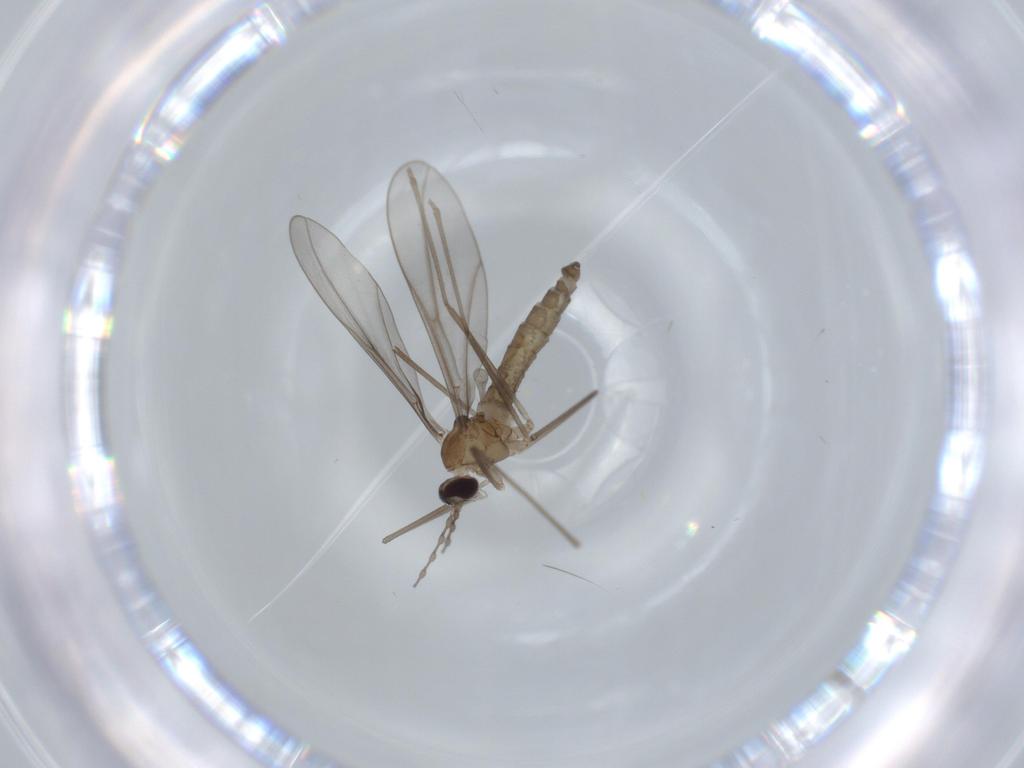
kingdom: Animalia
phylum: Arthropoda
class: Insecta
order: Diptera
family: Cecidomyiidae
